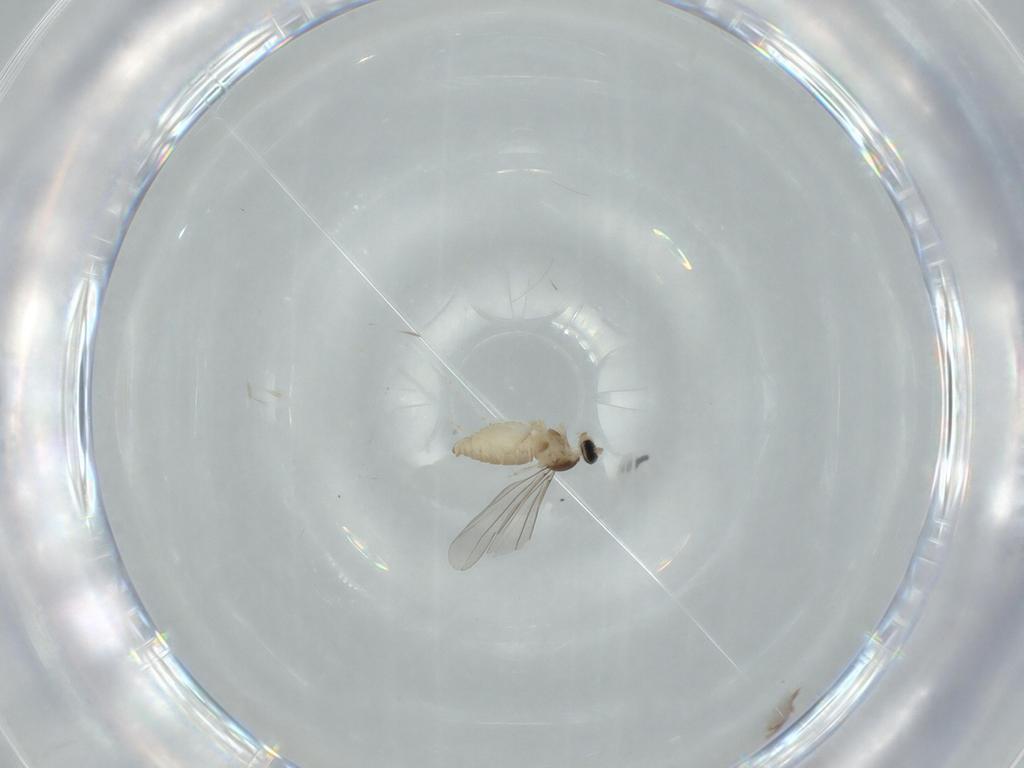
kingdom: Animalia
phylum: Arthropoda
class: Insecta
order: Diptera
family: Cecidomyiidae
